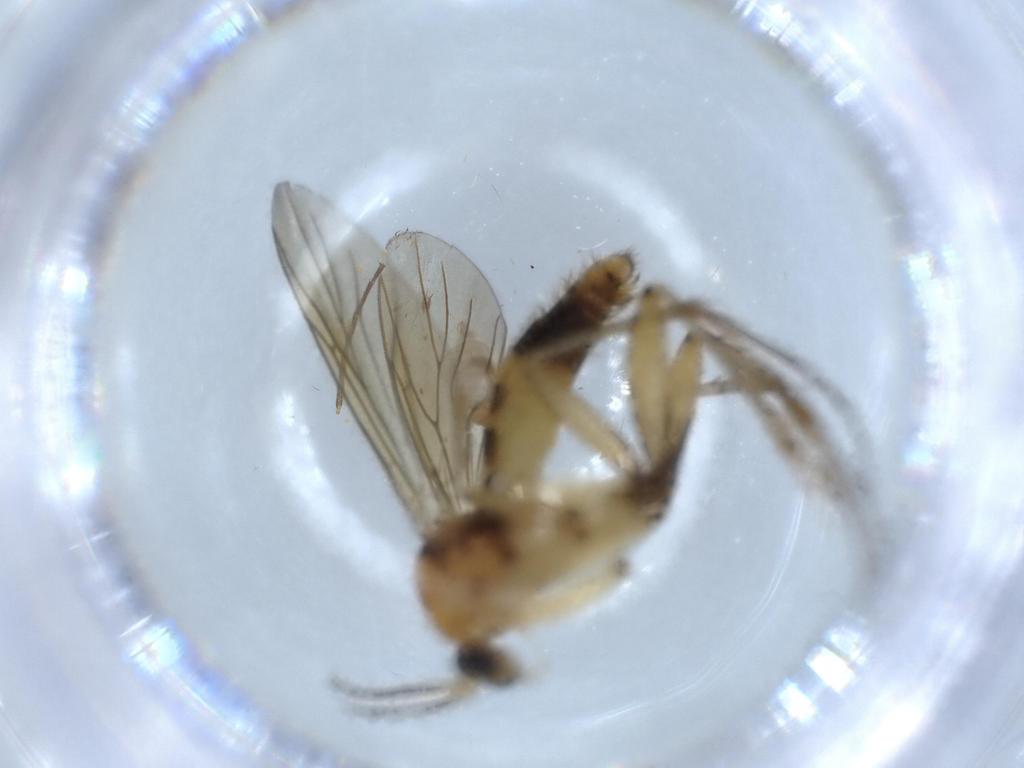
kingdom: Animalia
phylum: Arthropoda
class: Insecta
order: Diptera
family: Mycetophilidae
